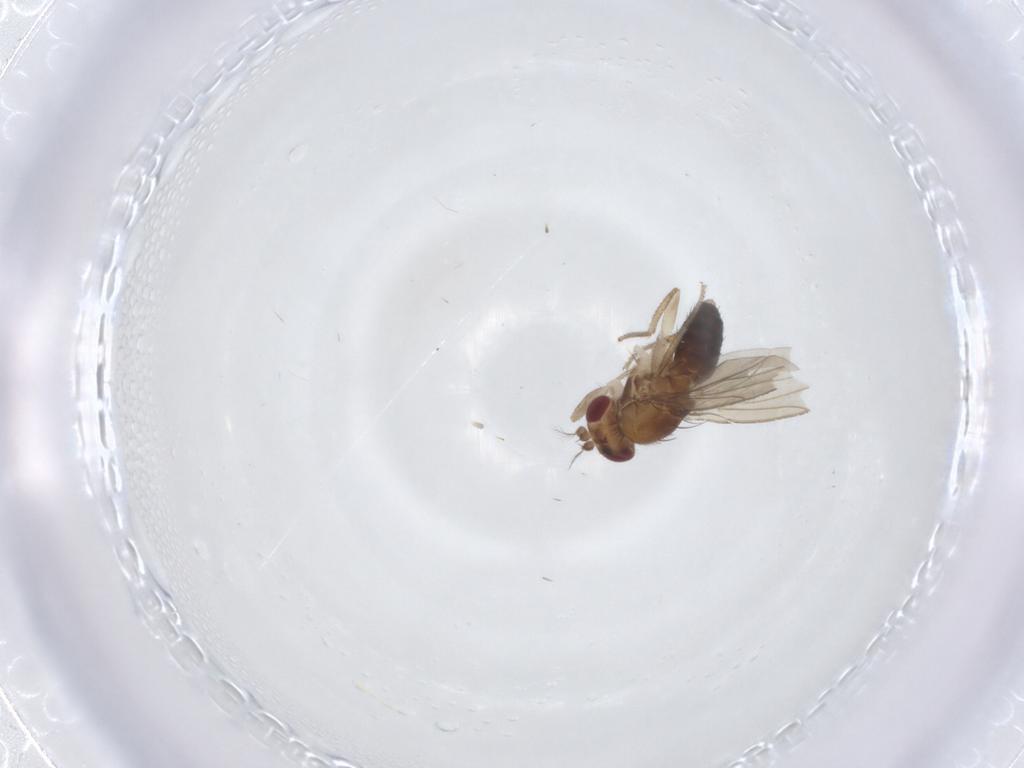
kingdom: Animalia
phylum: Arthropoda
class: Insecta
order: Diptera
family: Drosophilidae
